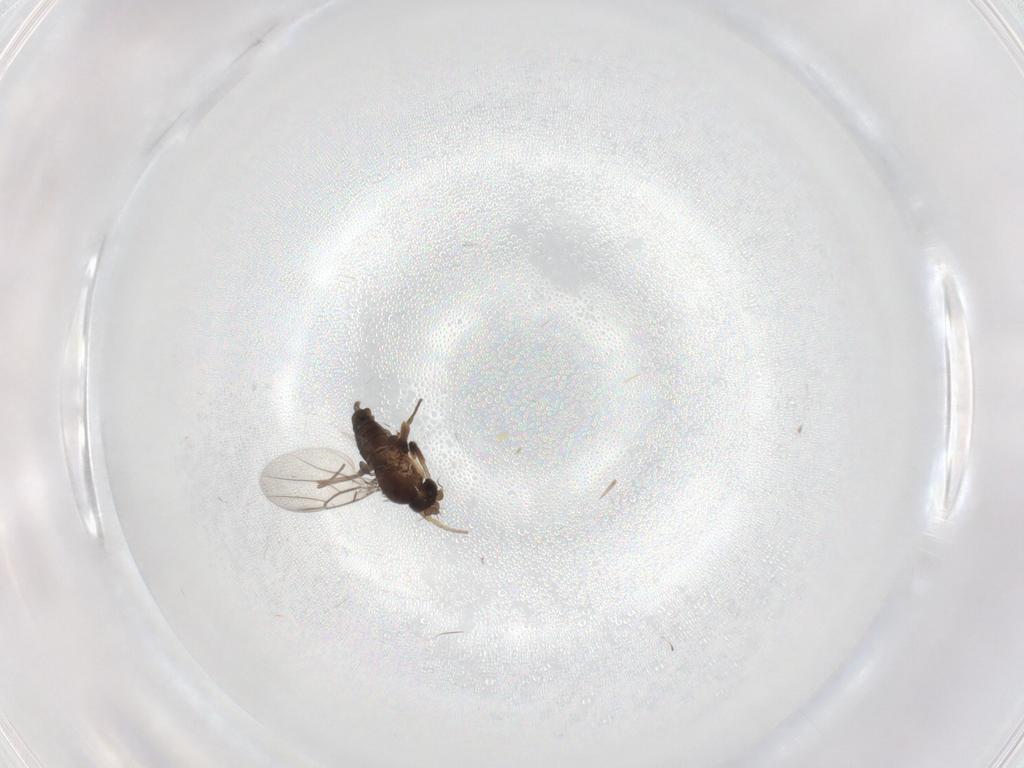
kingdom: Animalia
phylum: Arthropoda
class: Insecta
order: Diptera
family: Phoridae
